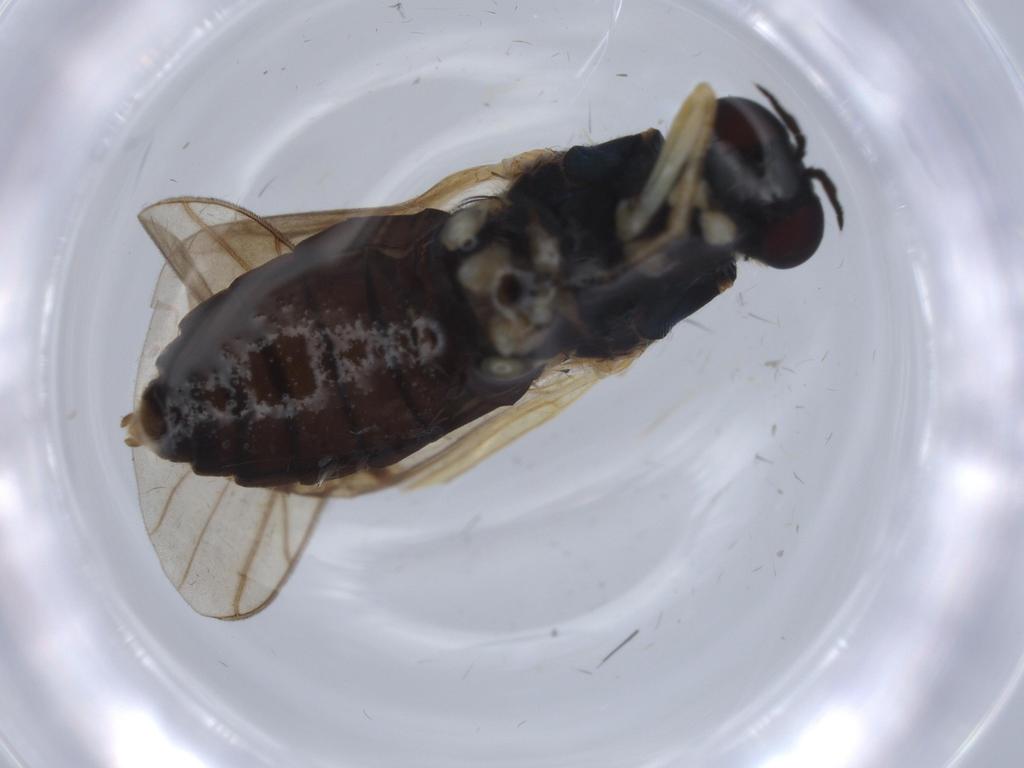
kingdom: Animalia
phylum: Arthropoda
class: Insecta
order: Diptera
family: Stratiomyidae
